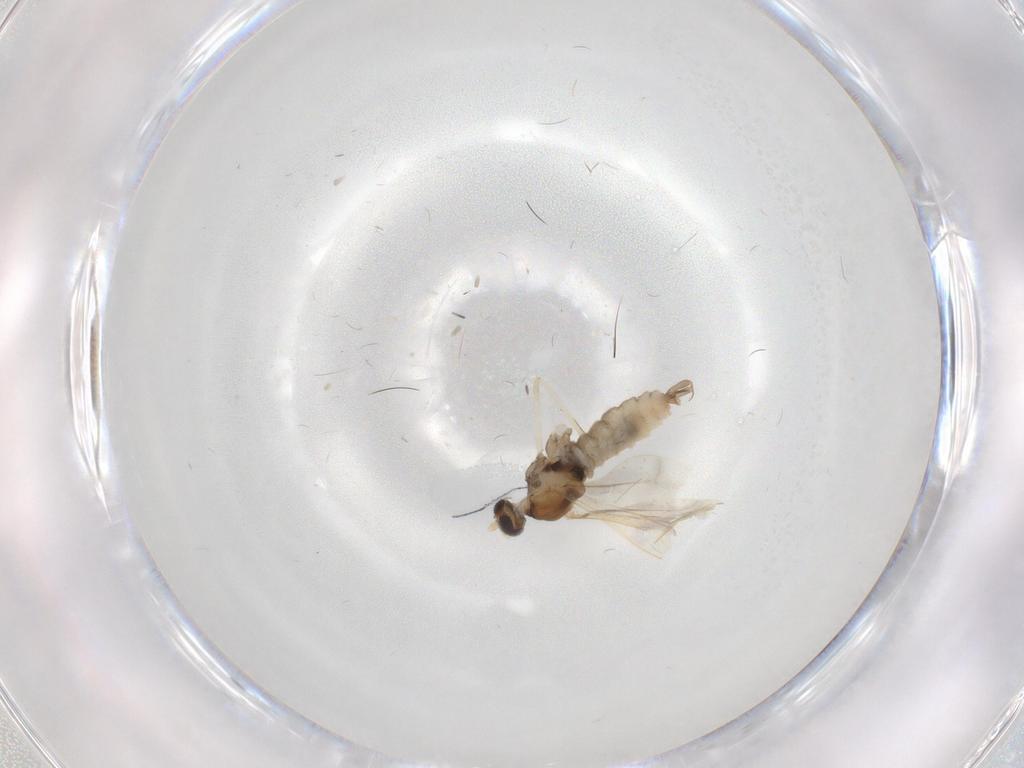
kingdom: Animalia
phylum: Arthropoda
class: Insecta
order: Diptera
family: Cecidomyiidae
